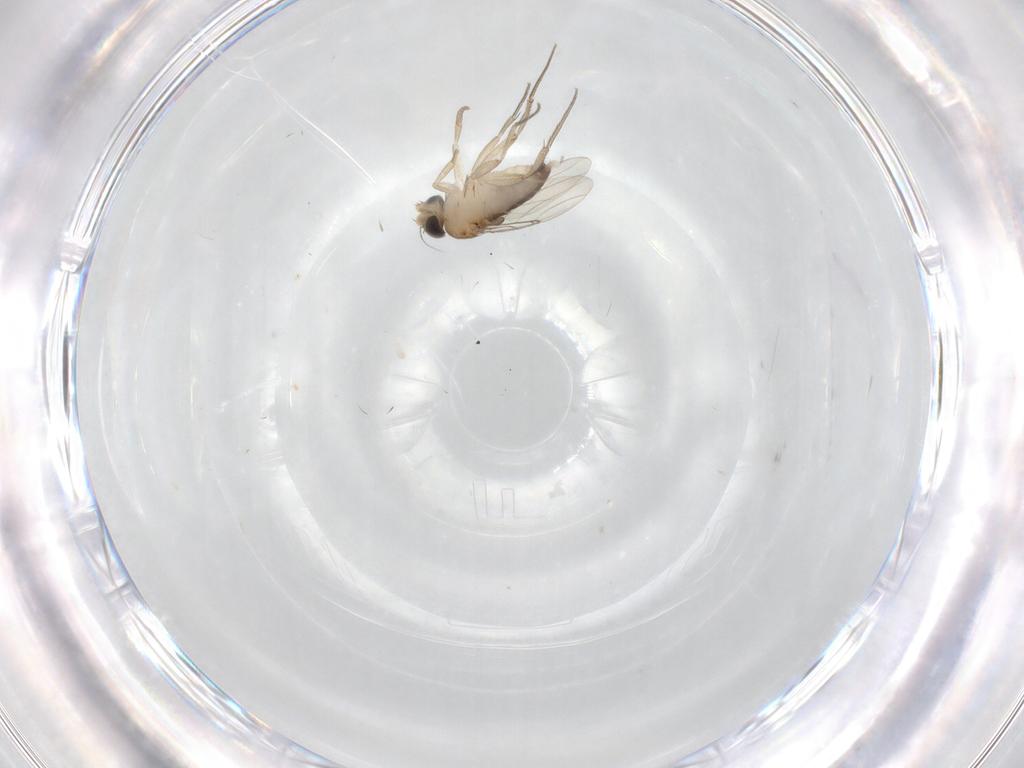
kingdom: Animalia
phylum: Arthropoda
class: Insecta
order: Diptera
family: Phoridae
